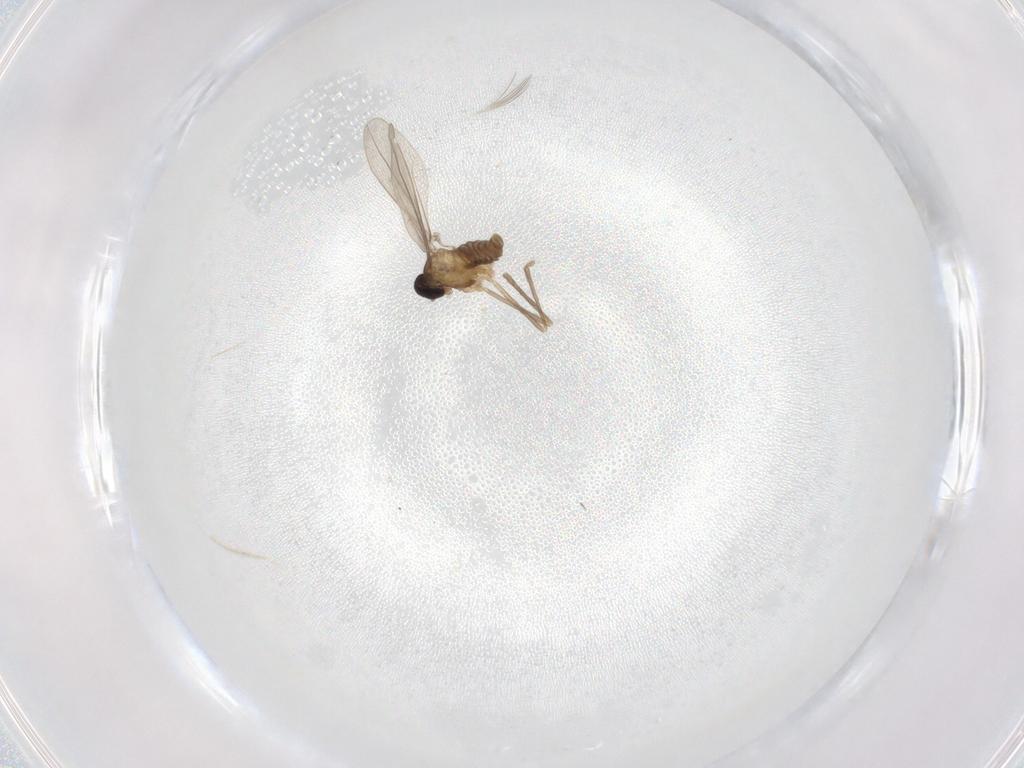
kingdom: Animalia
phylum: Arthropoda
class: Insecta
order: Diptera
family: Cecidomyiidae
